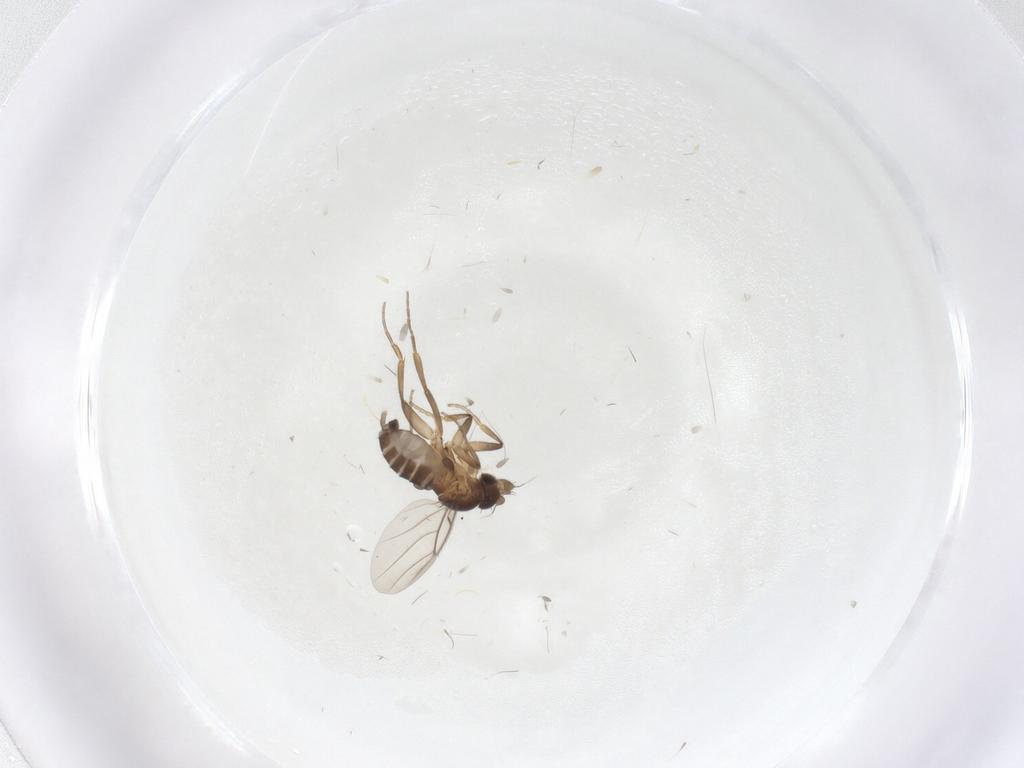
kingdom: Animalia
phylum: Arthropoda
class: Insecta
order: Diptera
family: Phoridae
